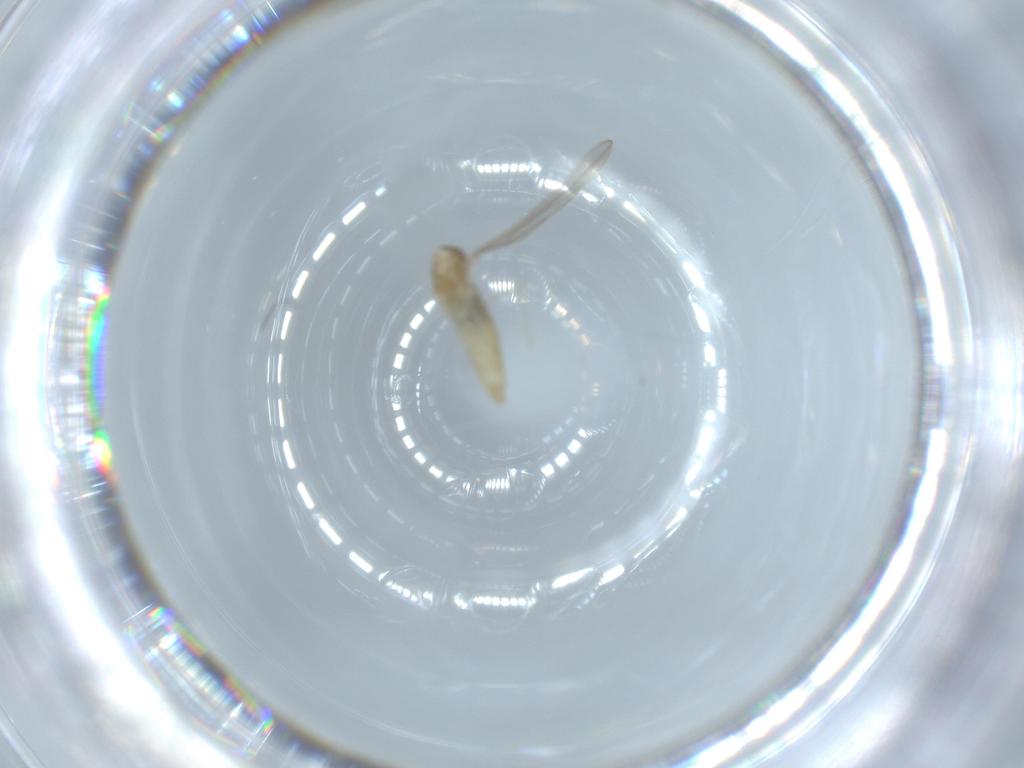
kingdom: Animalia
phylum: Arthropoda
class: Insecta
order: Diptera
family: Cecidomyiidae
